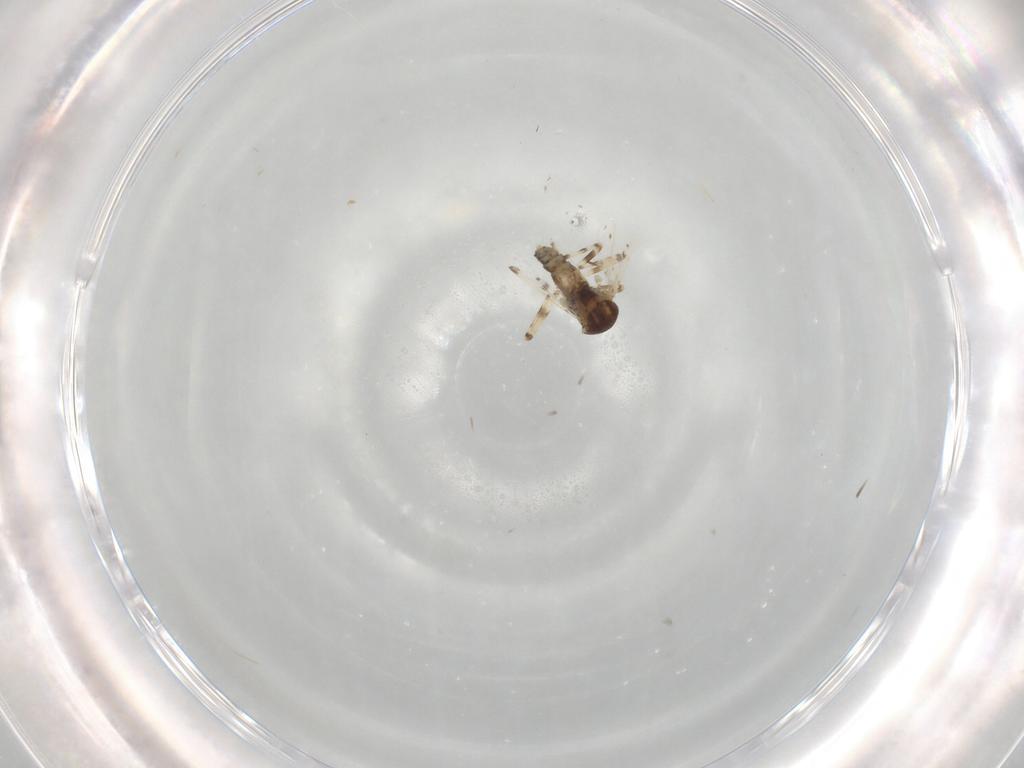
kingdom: Animalia
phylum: Arthropoda
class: Insecta
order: Diptera
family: Ceratopogonidae
